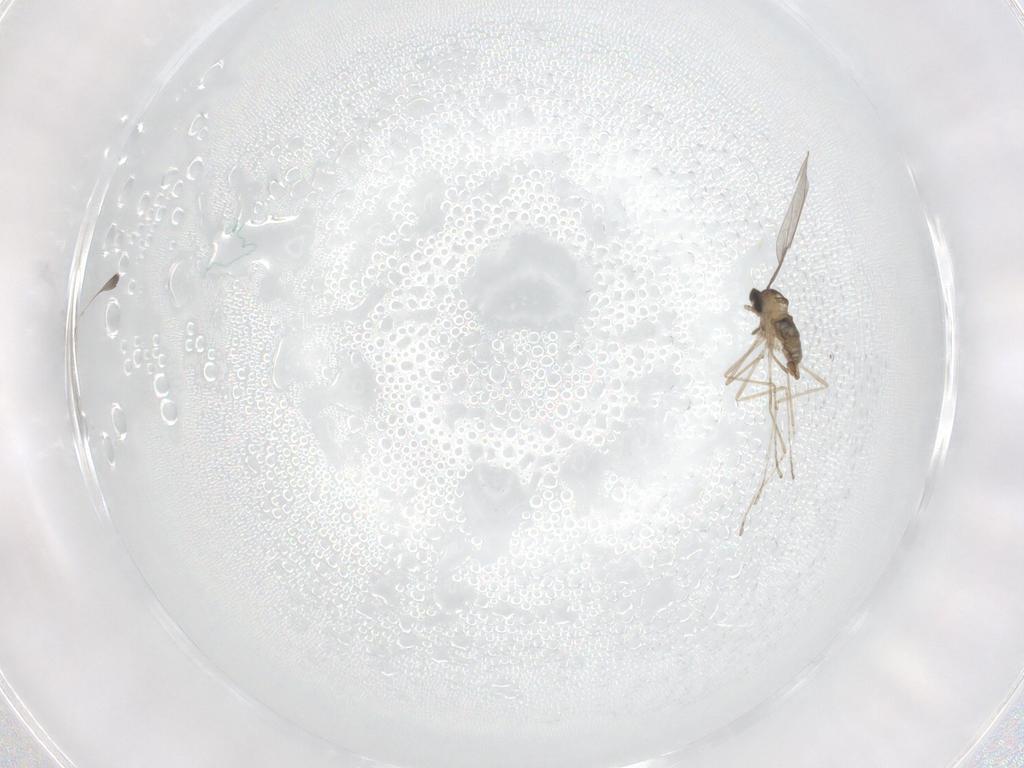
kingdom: Animalia
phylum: Arthropoda
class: Insecta
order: Diptera
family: Cecidomyiidae
